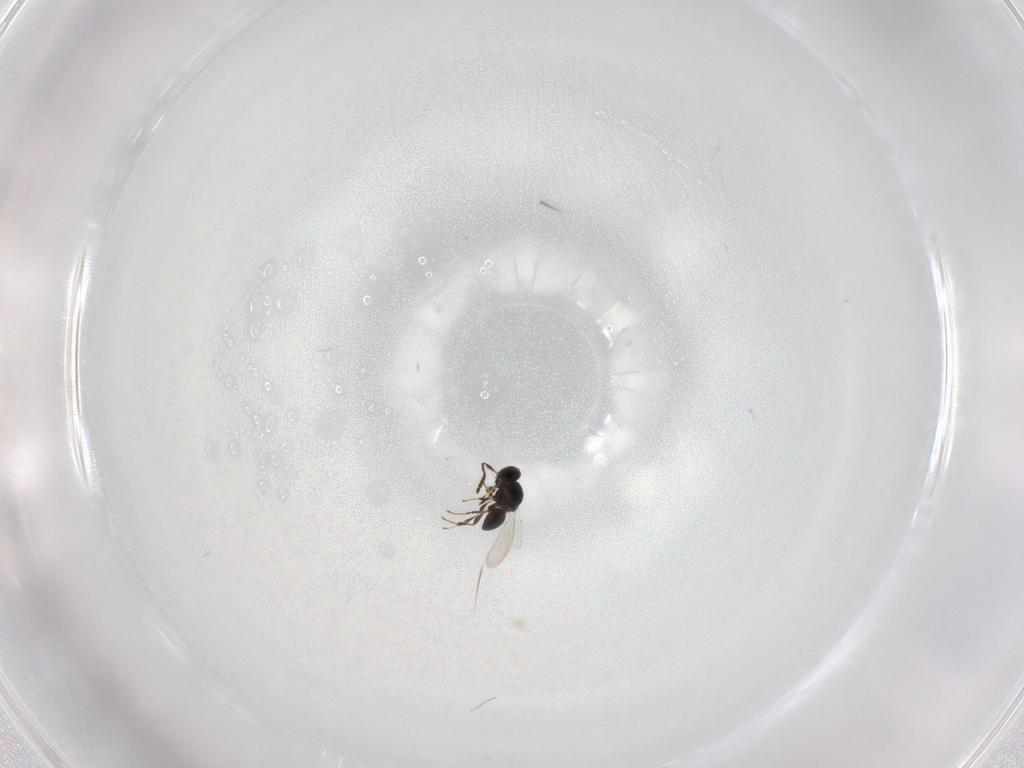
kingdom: Animalia
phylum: Arthropoda
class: Insecta
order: Hymenoptera
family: Platygastridae
